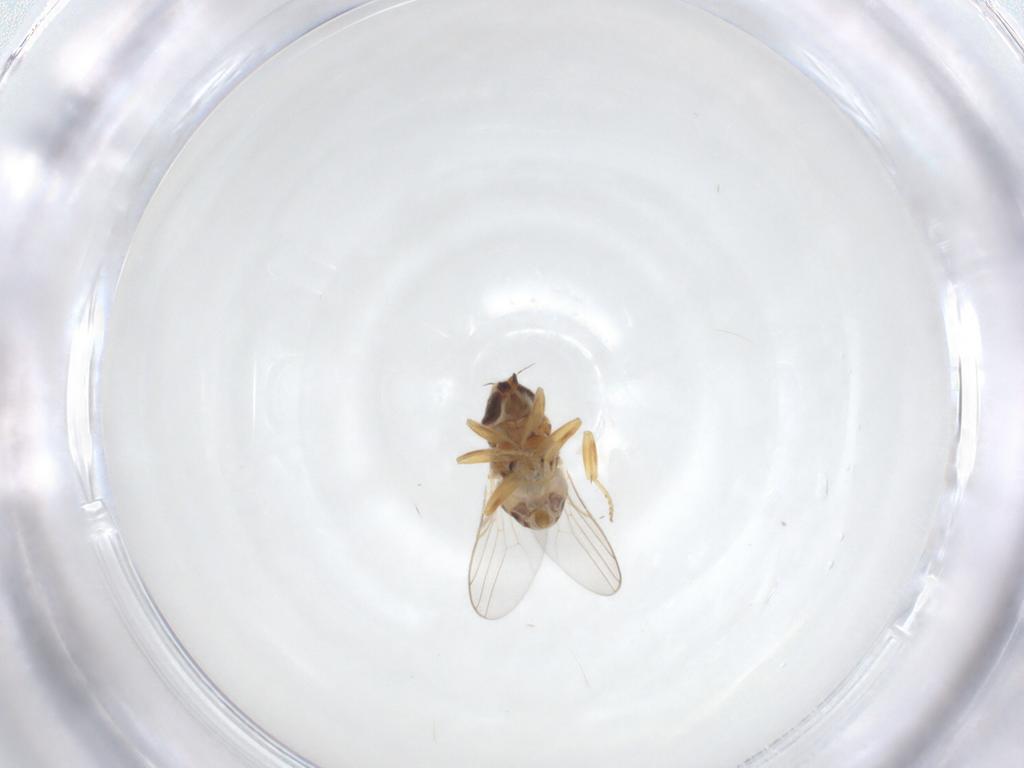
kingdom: Animalia
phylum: Arthropoda
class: Insecta
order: Diptera
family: Chloropidae
